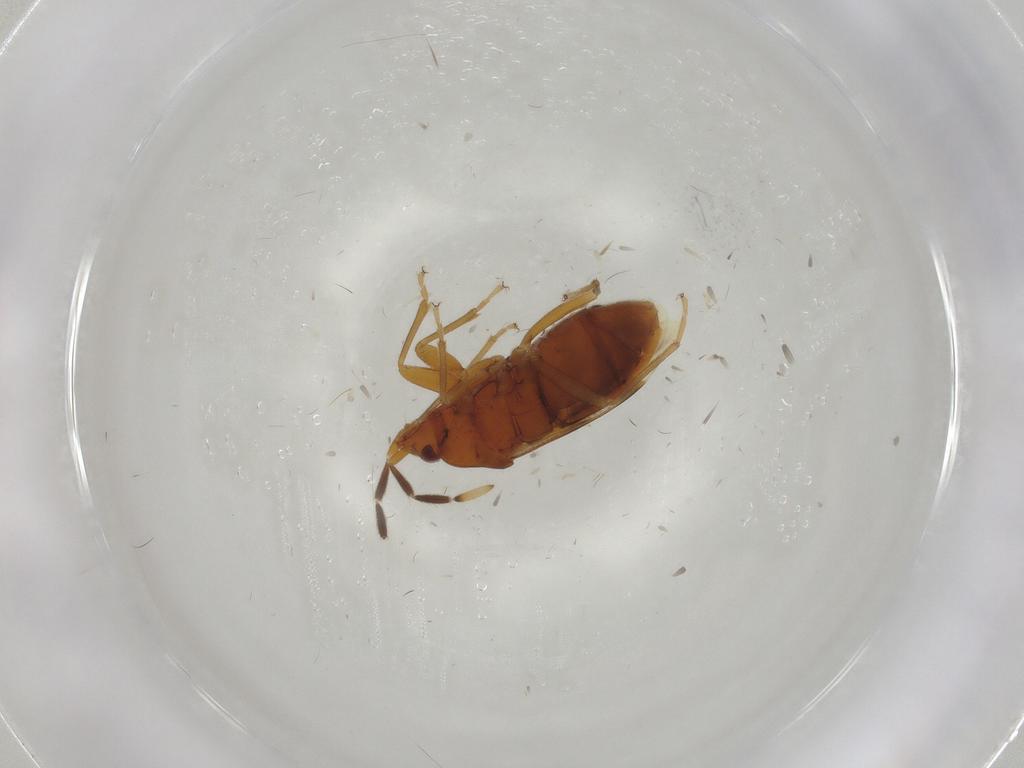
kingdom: Animalia
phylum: Arthropoda
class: Insecta
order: Hemiptera
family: Rhyparochromidae
